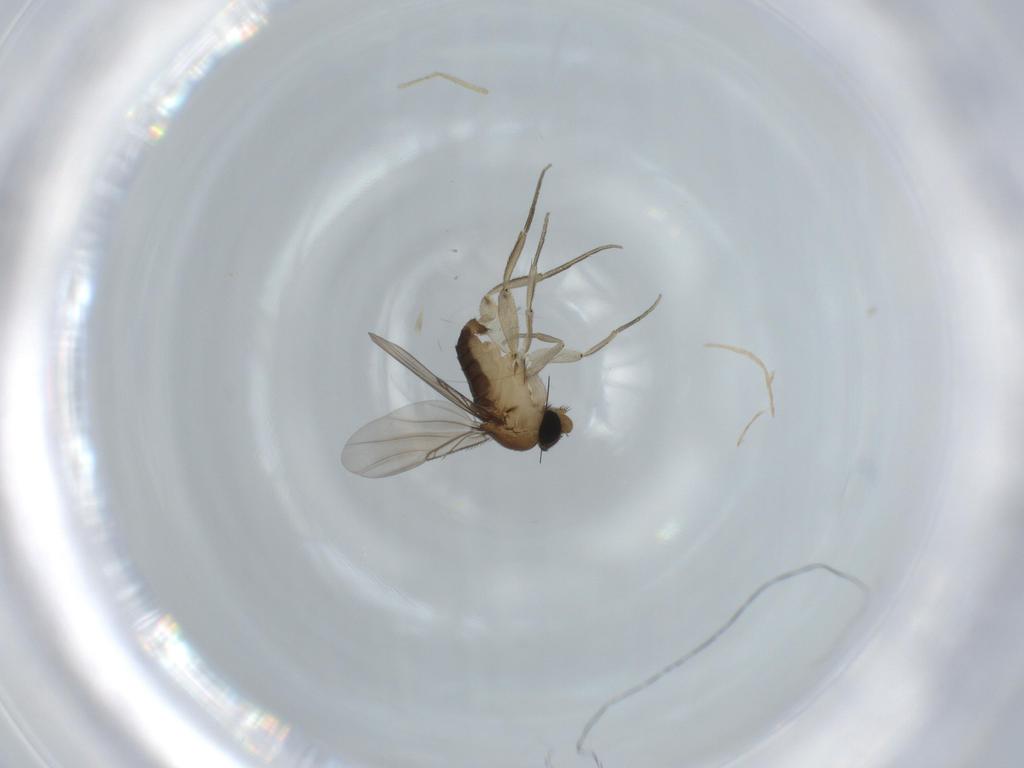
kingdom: Animalia
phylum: Arthropoda
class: Insecta
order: Diptera
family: Phoridae
